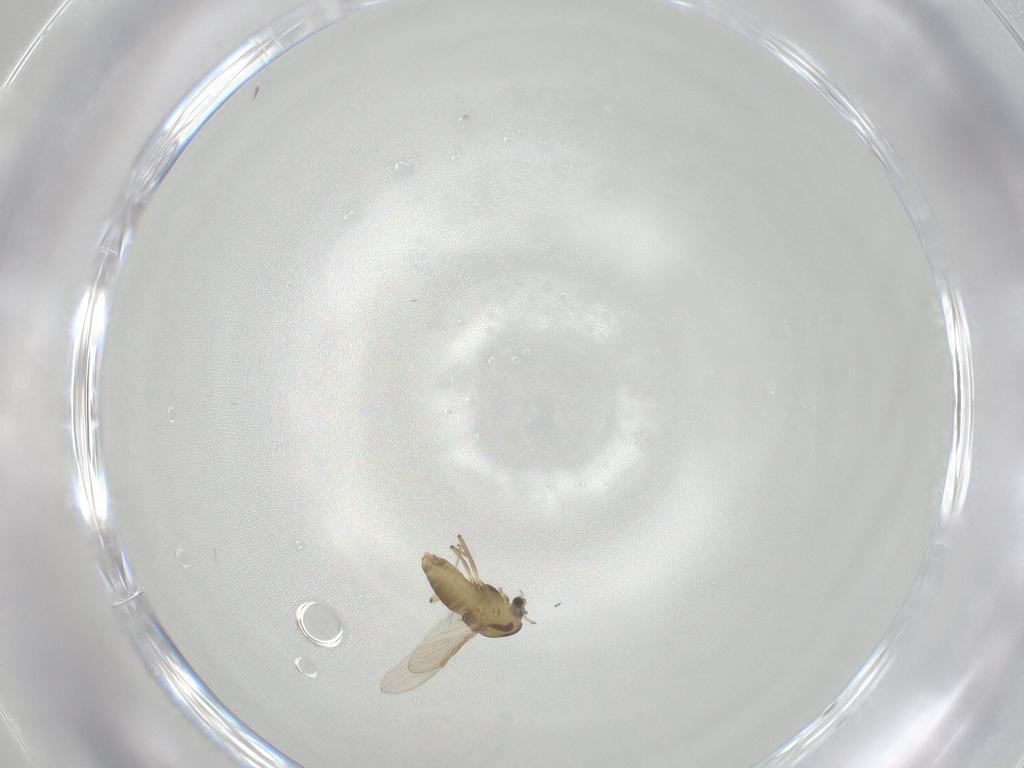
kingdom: Animalia
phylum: Arthropoda
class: Insecta
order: Diptera
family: Chironomidae
